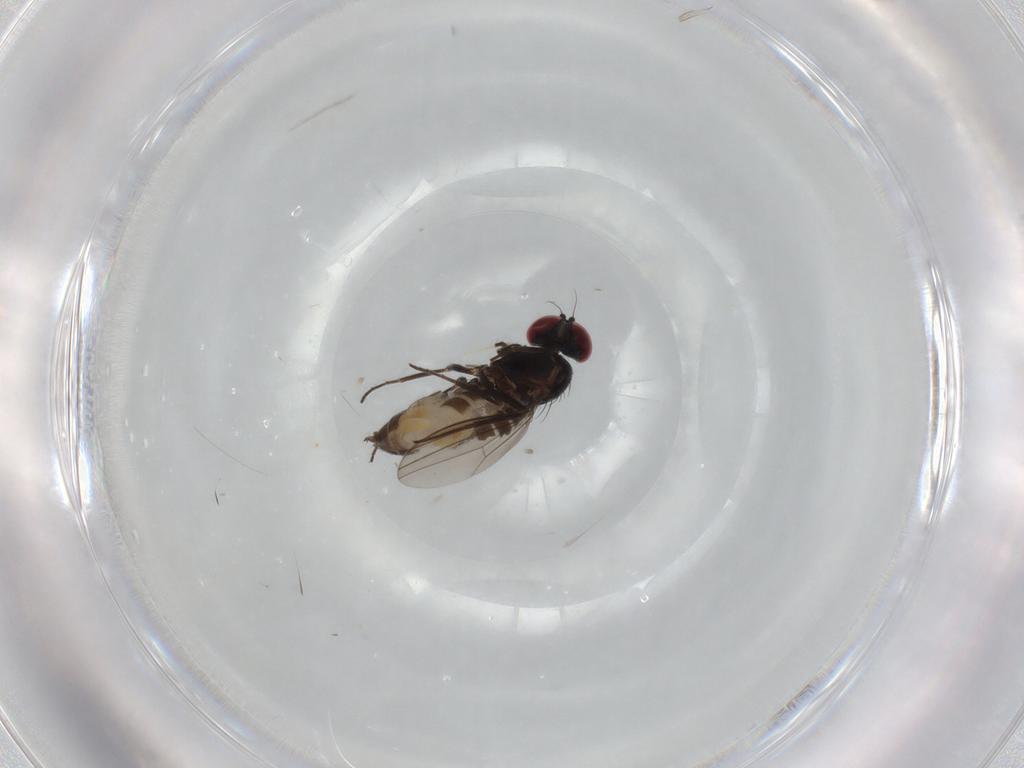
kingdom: Animalia
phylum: Arthropoda
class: Insecta
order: Diptera
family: Dolichopodidae
